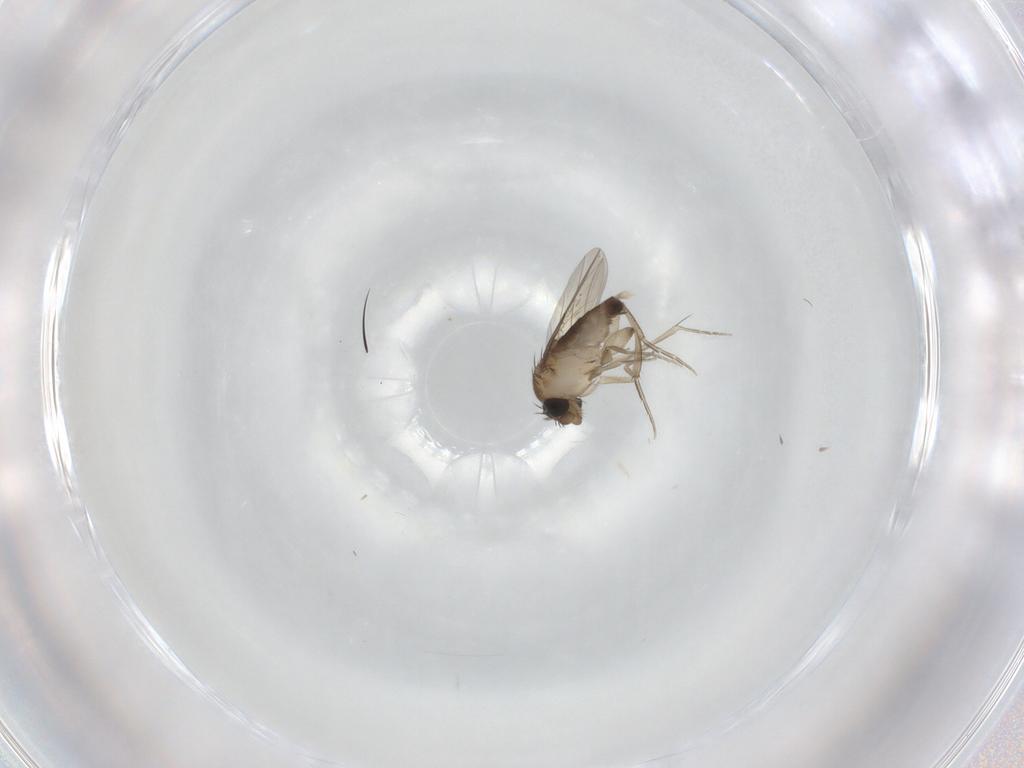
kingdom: Animalia
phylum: Arthropoda
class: Insecta
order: Diptera
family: Phoridae
